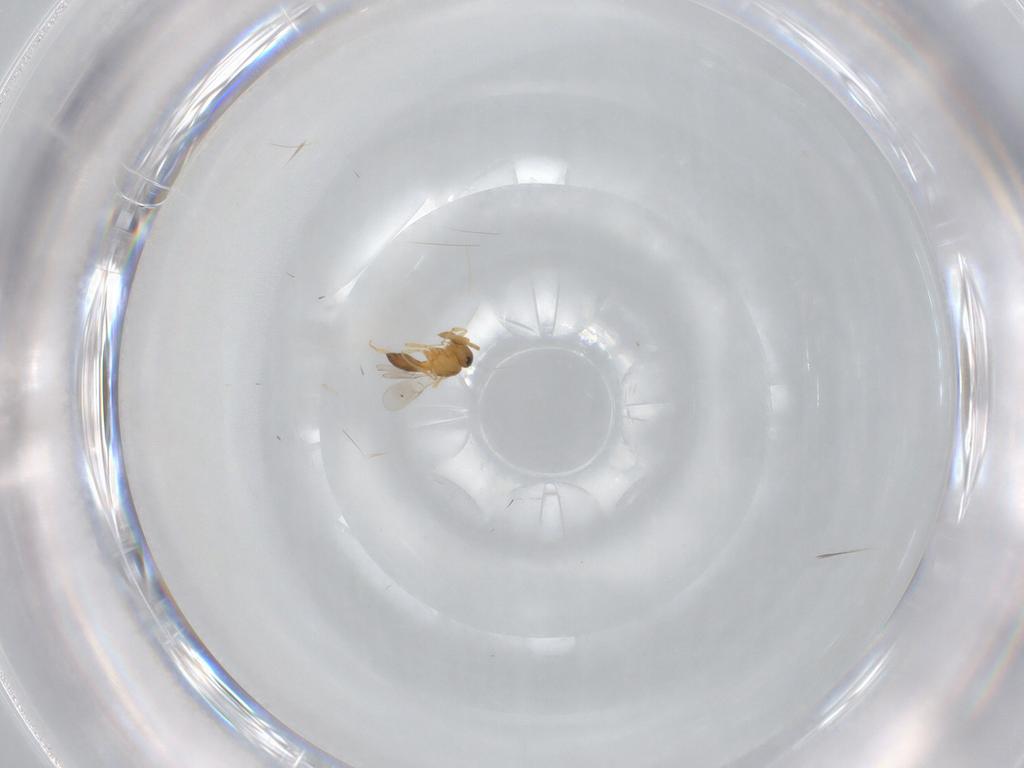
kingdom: Animalia
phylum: Arthropoda
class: Insecta
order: Hymenoptera
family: Scelionidae
